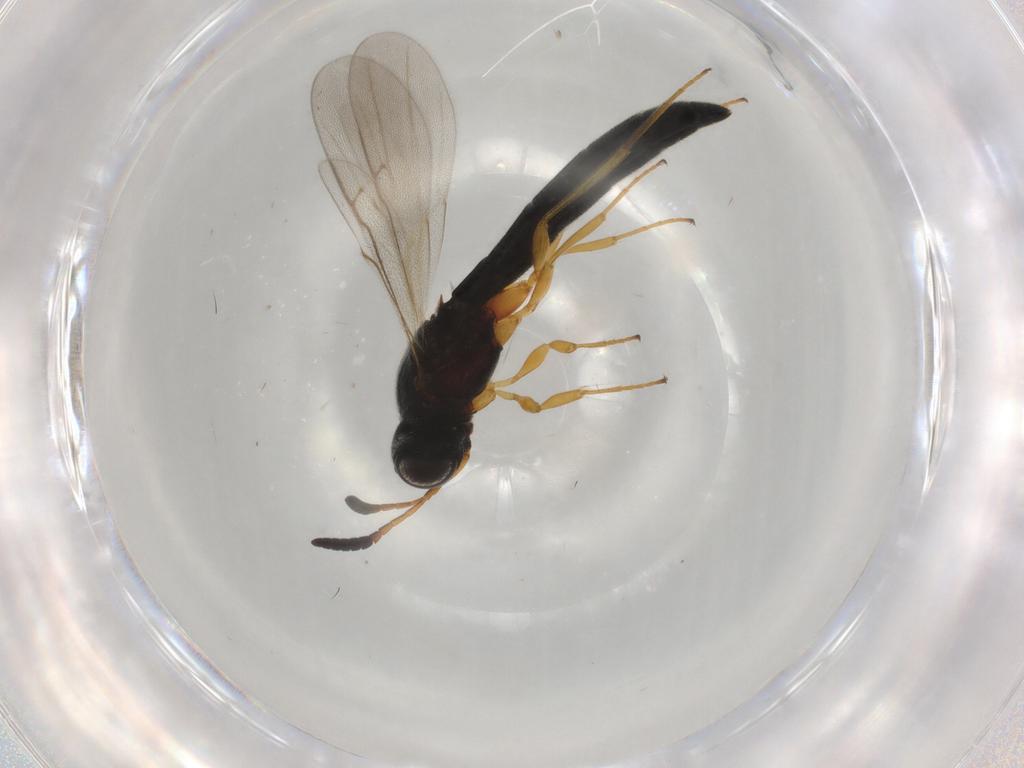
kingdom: Animalia
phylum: Arthropoda
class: Insecta
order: Hymenoptera
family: Scelionidae
